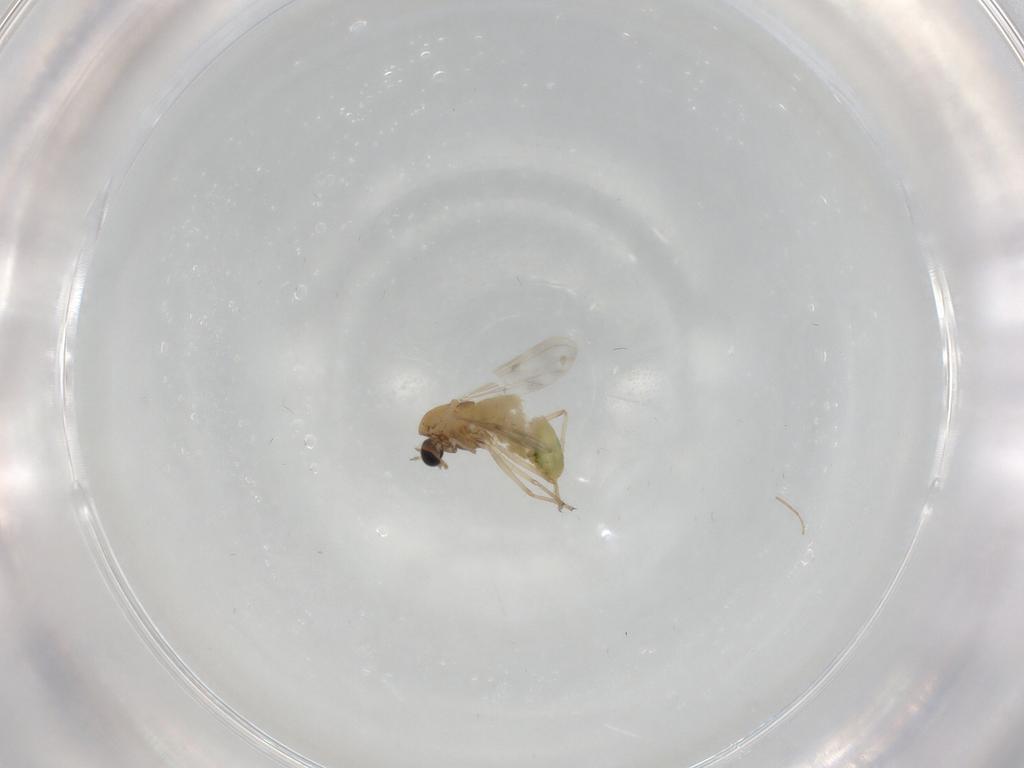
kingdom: Animalia
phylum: Arthropoda
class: Insecta
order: Diptera
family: Chironomidae
